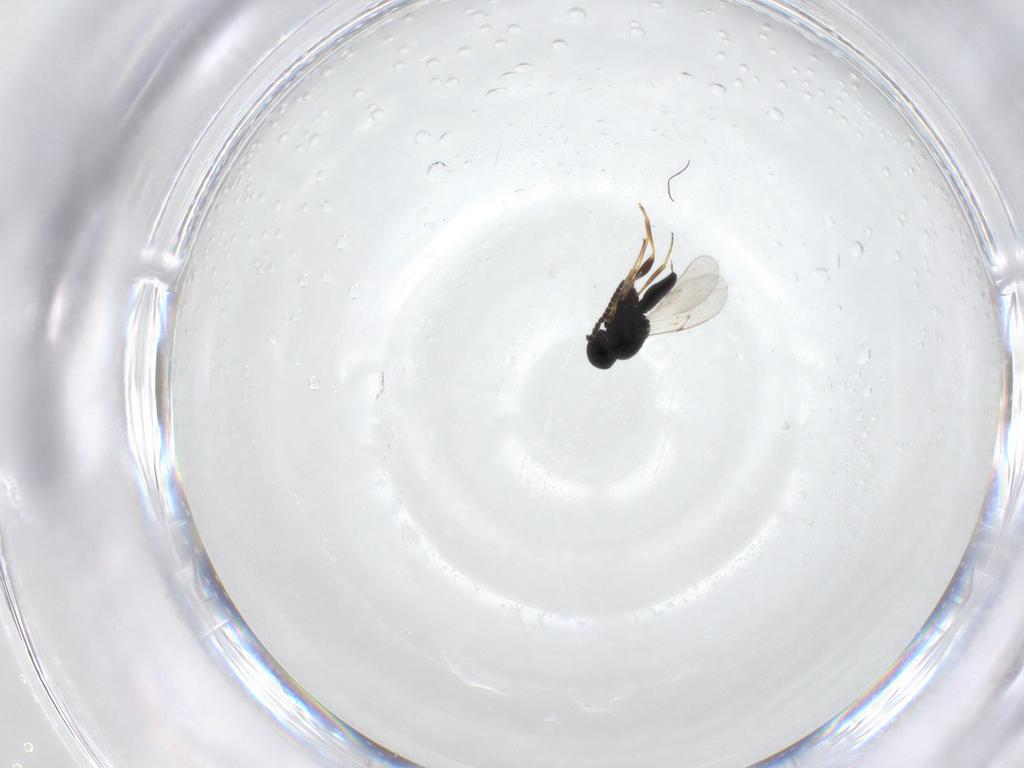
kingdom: Animalia
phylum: Arthropoda
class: Insecta
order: Hymenoptera
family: Scelionidae
